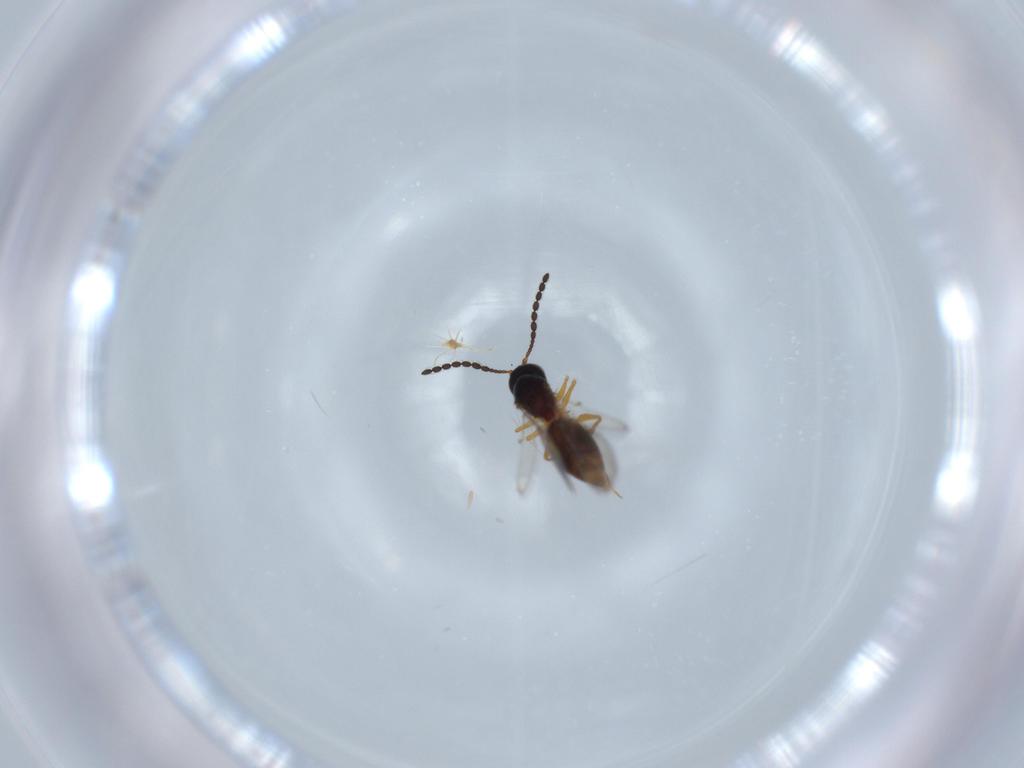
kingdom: Animalia
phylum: Arthropoda
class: Insecta
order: Hymenoptera
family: Figitidae
